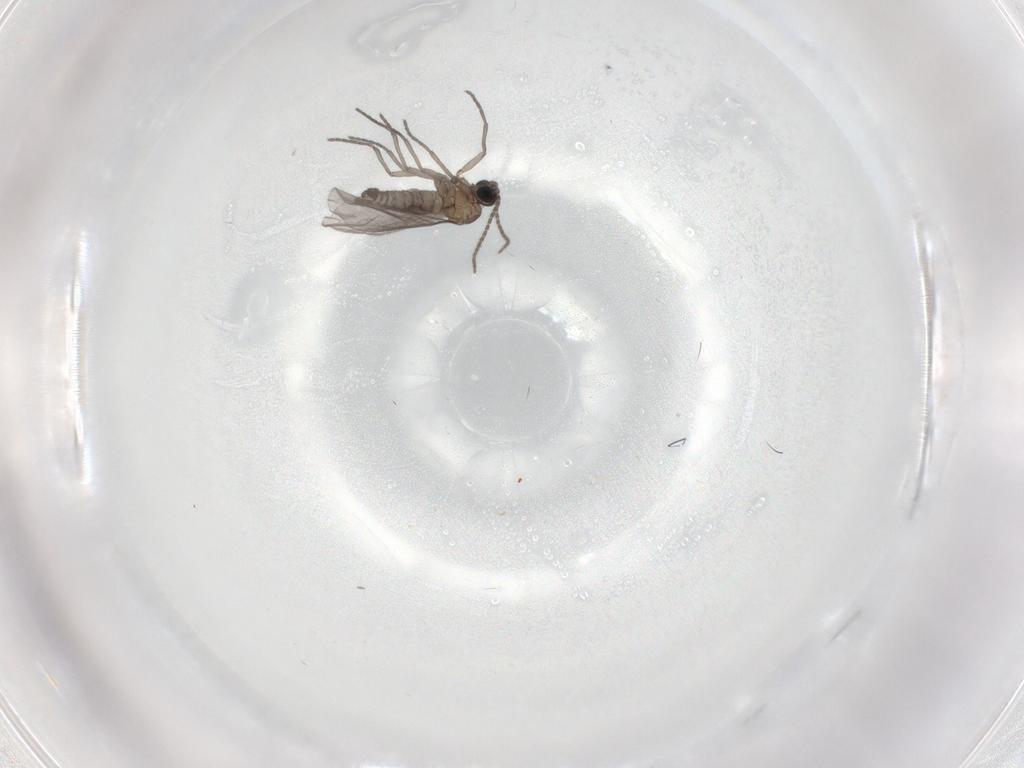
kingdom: Animalia
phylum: Arthropoda
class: Insecta
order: Diptera
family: Sciaridae
